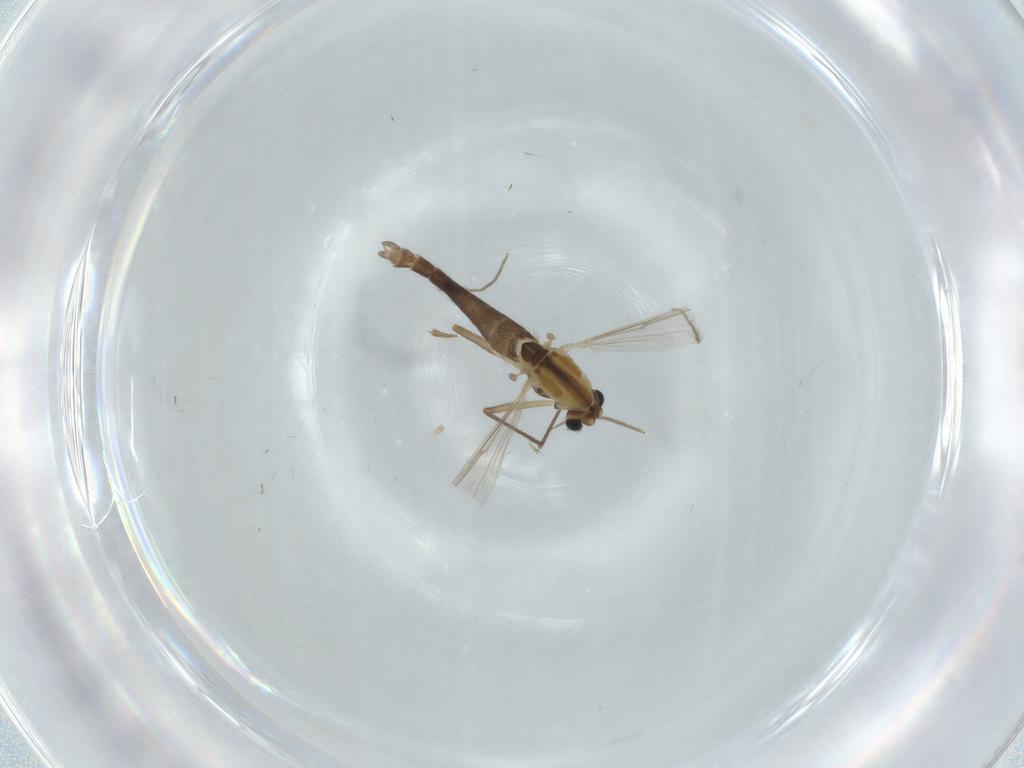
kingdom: Animalia
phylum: Arthropoda
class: Insecta
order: Diptera
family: Chironomidae
